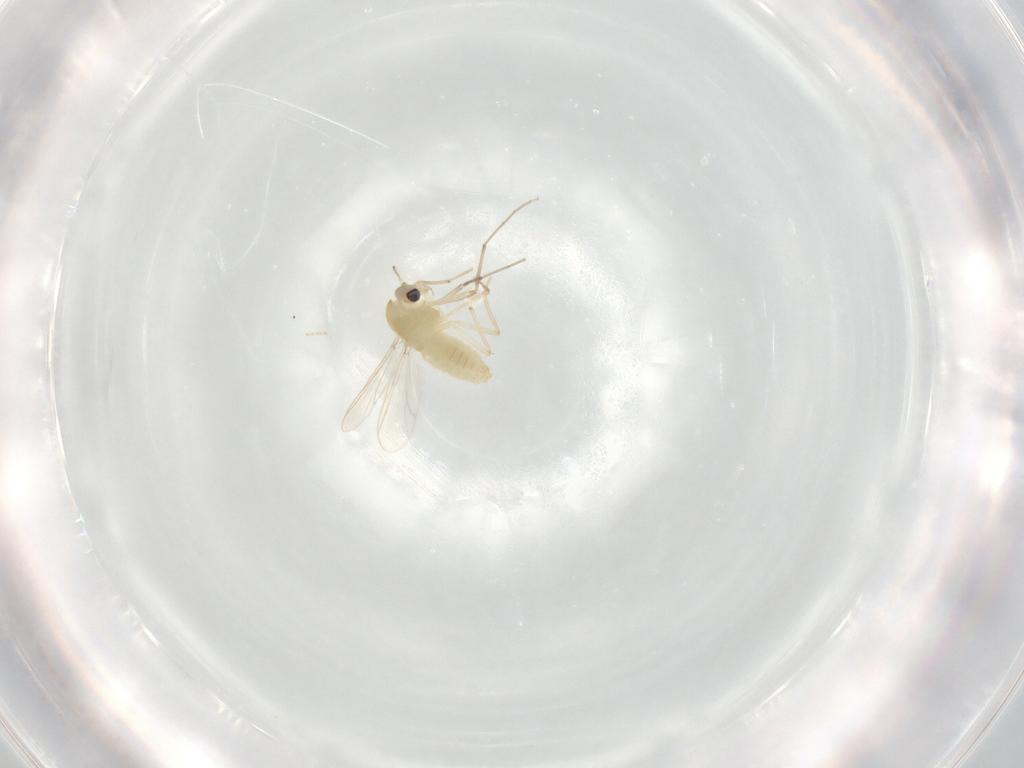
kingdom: Animalia
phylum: Arthropoda
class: Insecta
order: Diptera
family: Chironomidae
